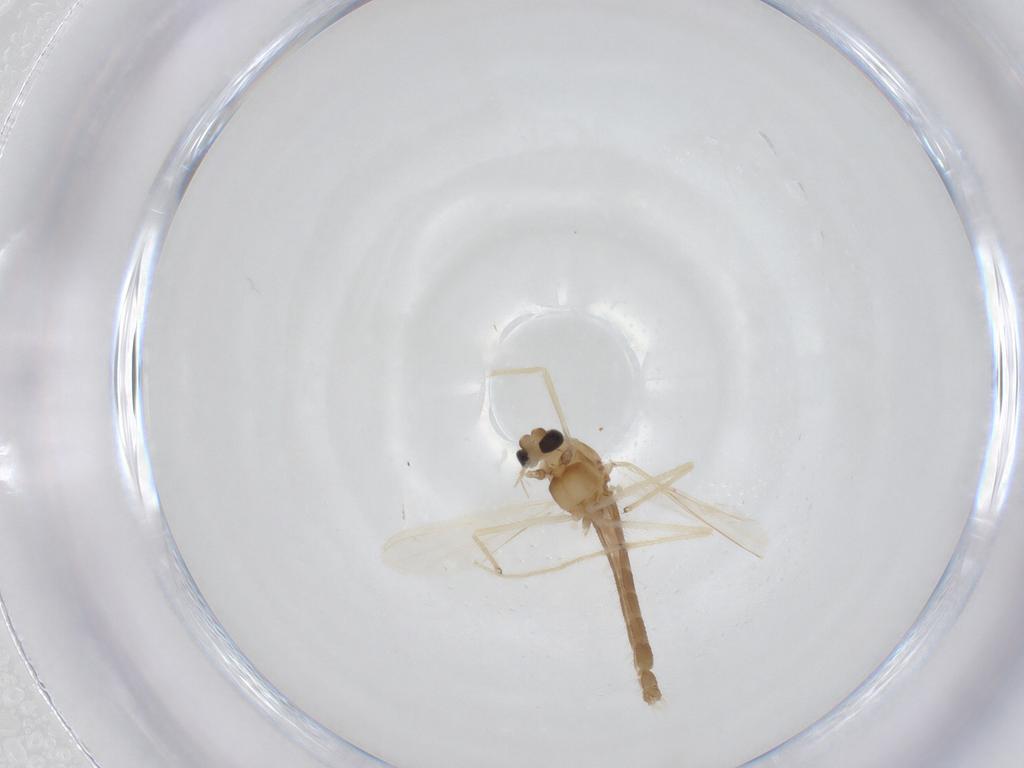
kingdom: Animalia
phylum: Arthropoda
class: Insecta
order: Diptera
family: Chironomidae
